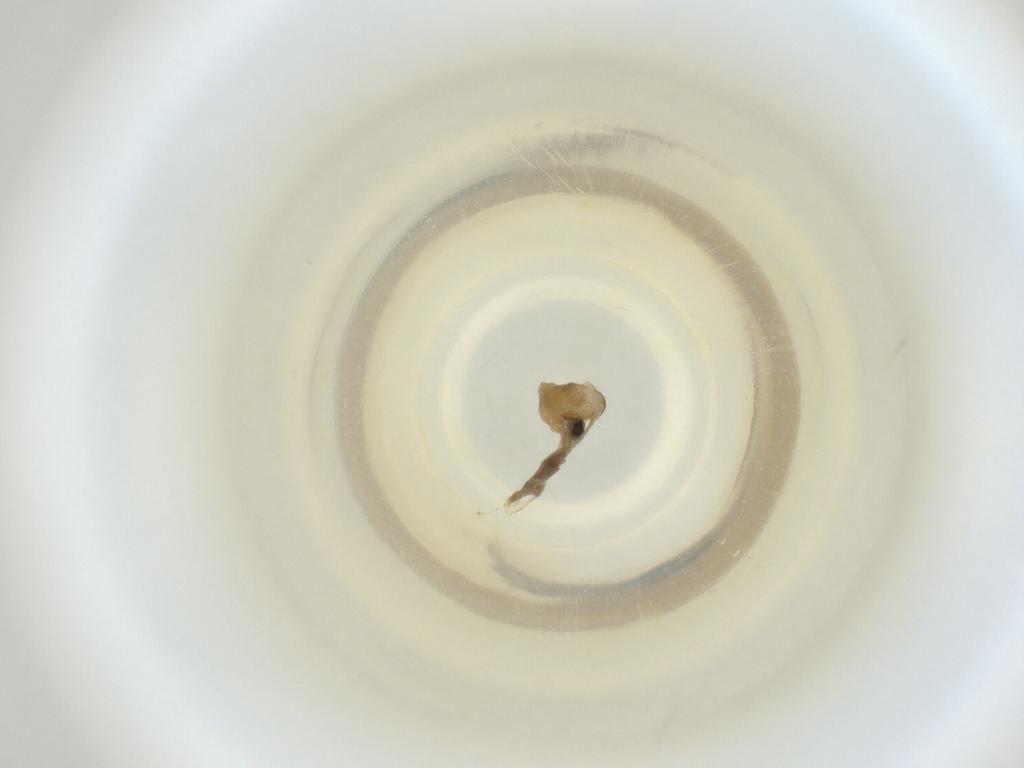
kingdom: Animalia
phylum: Arthropoda
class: Insecta
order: Diptera
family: Cecidomyiidae
